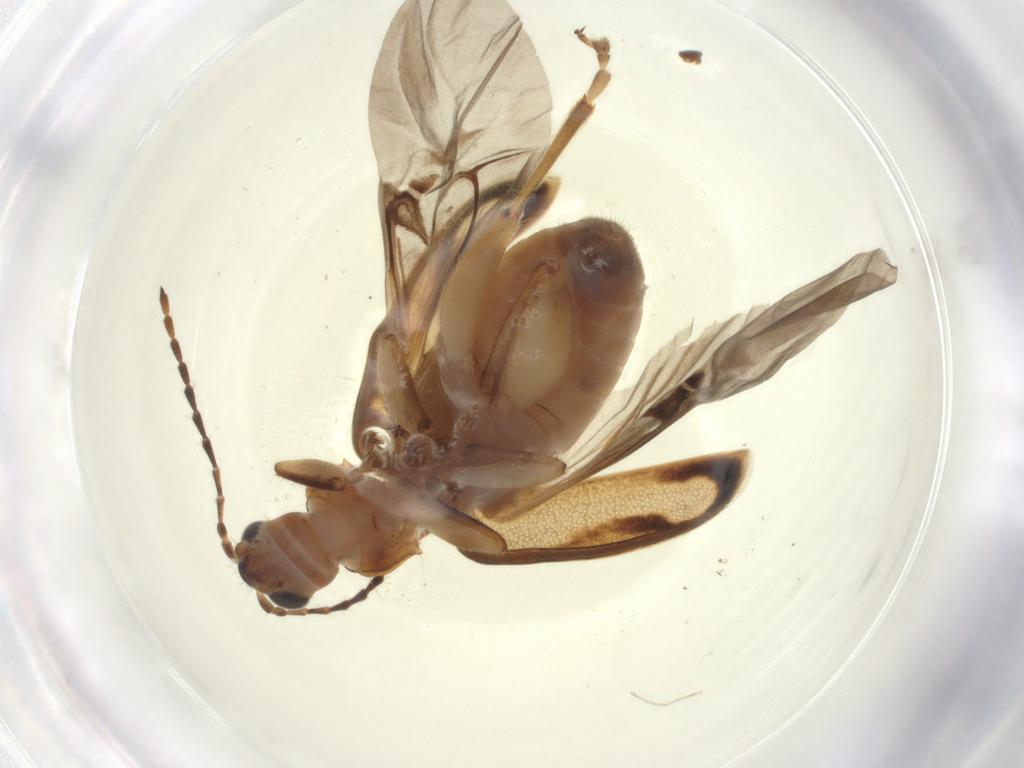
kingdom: Animalia
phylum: Arthropoda
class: Insecta
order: Coleoptera
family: Chrysomelidae
